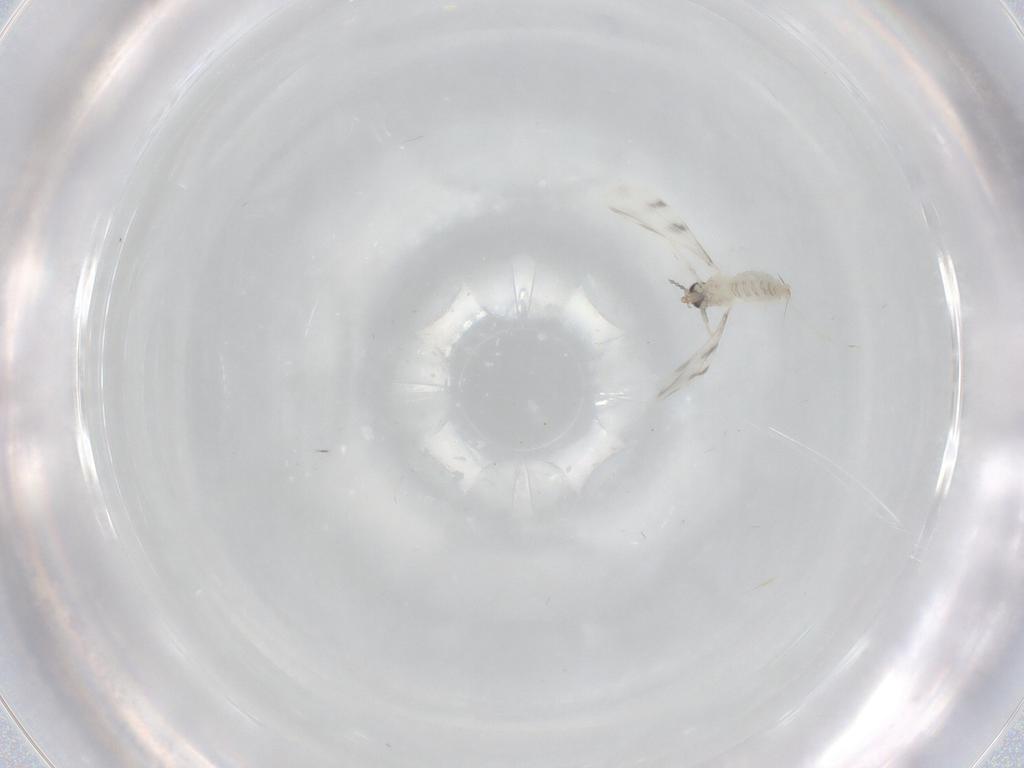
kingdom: Animalia
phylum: Arthropoda
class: Insecta
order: Diptera
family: Cecidomyiidae
